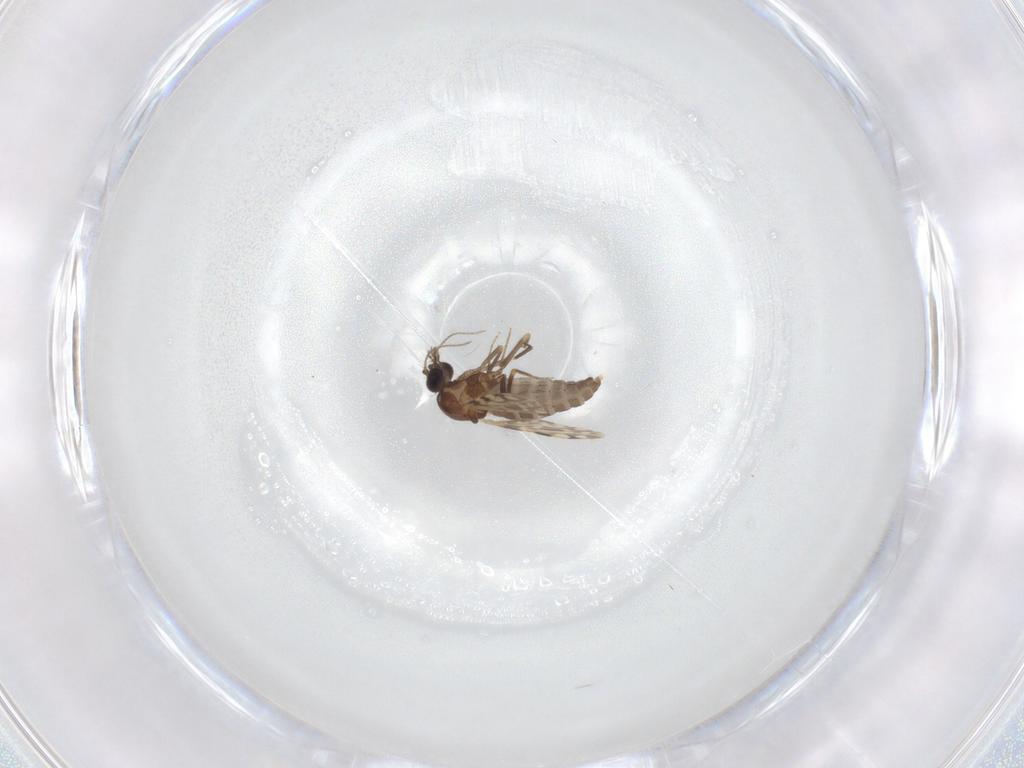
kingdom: Animalia
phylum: Arthropoda
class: Insecta
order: Diptera
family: Ceratopogonidae
